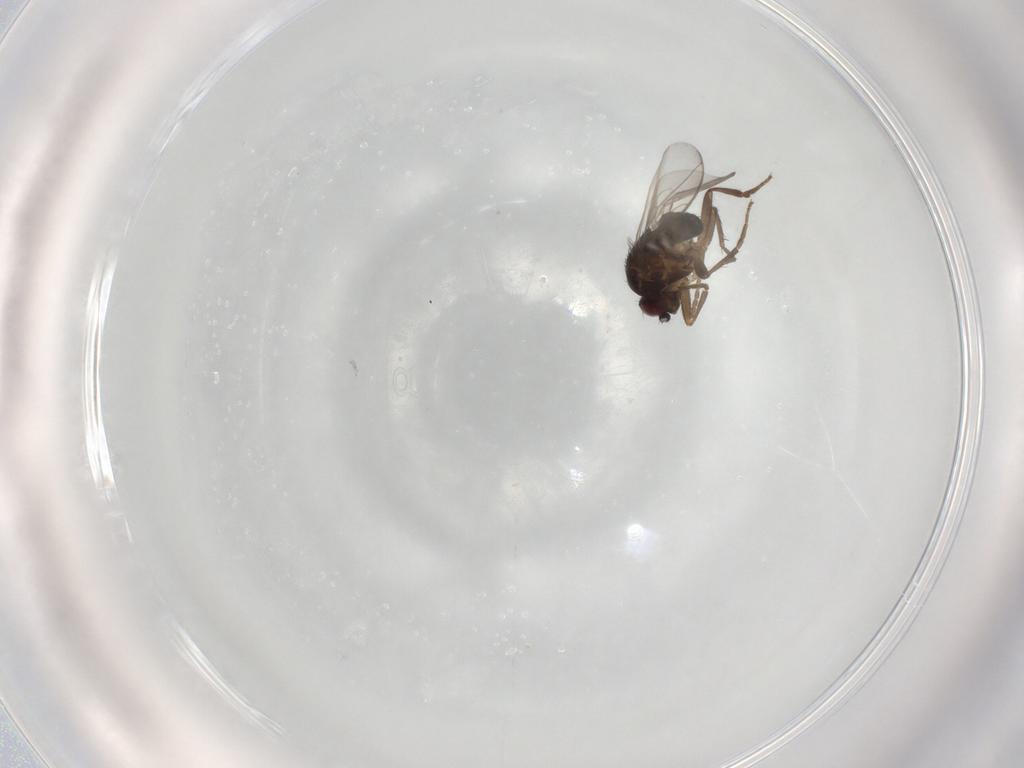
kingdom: Animalia
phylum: Arthropoda
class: Insecta
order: Diptera
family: Sphaeroceridae
